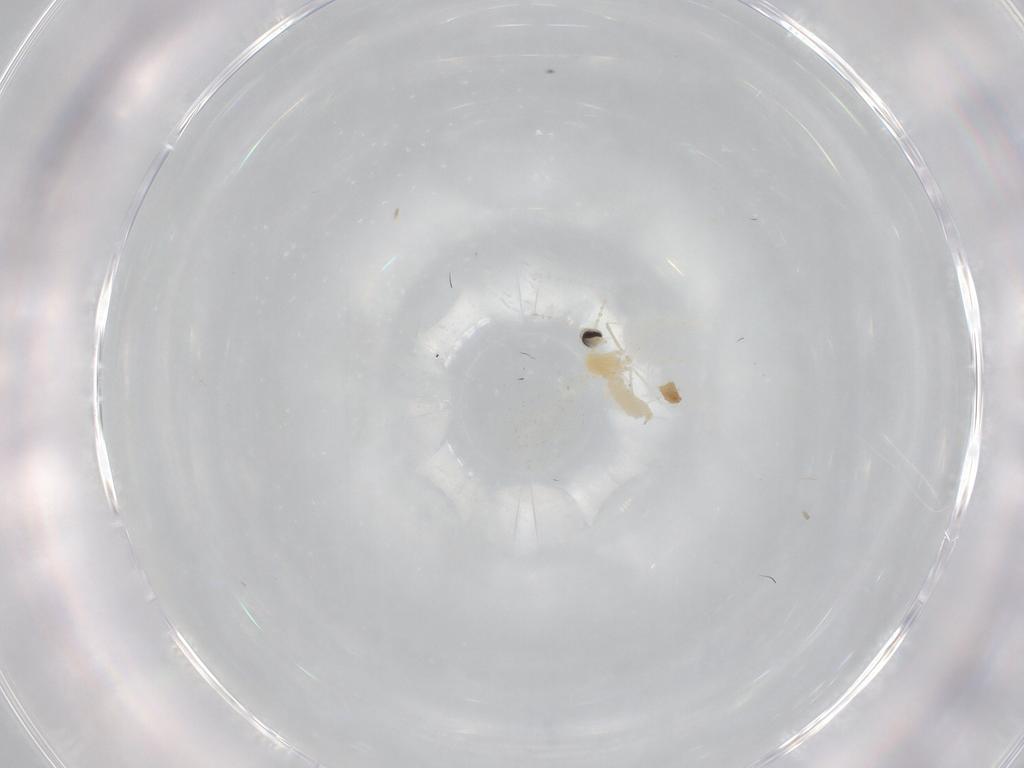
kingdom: Animalia
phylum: Arthropoda
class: Insecta
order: Diptera
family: Cecidomyiidae
